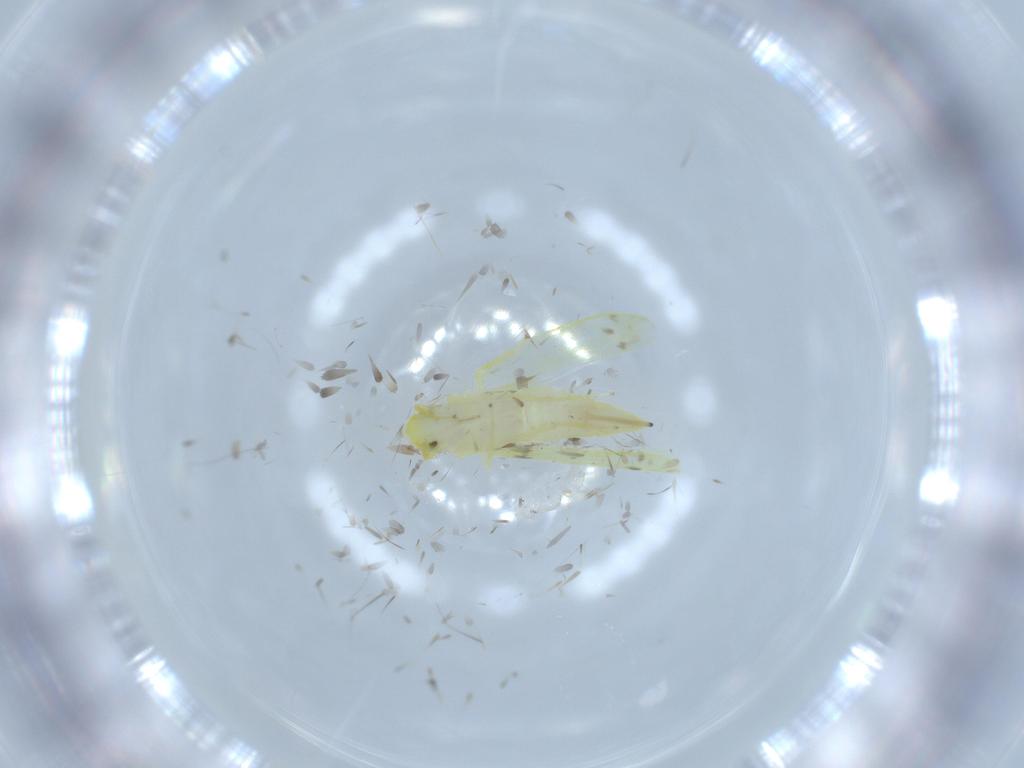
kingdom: Animalia
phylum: Arthropoda
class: Insecta
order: Hemiptera
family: Cicadellidae
